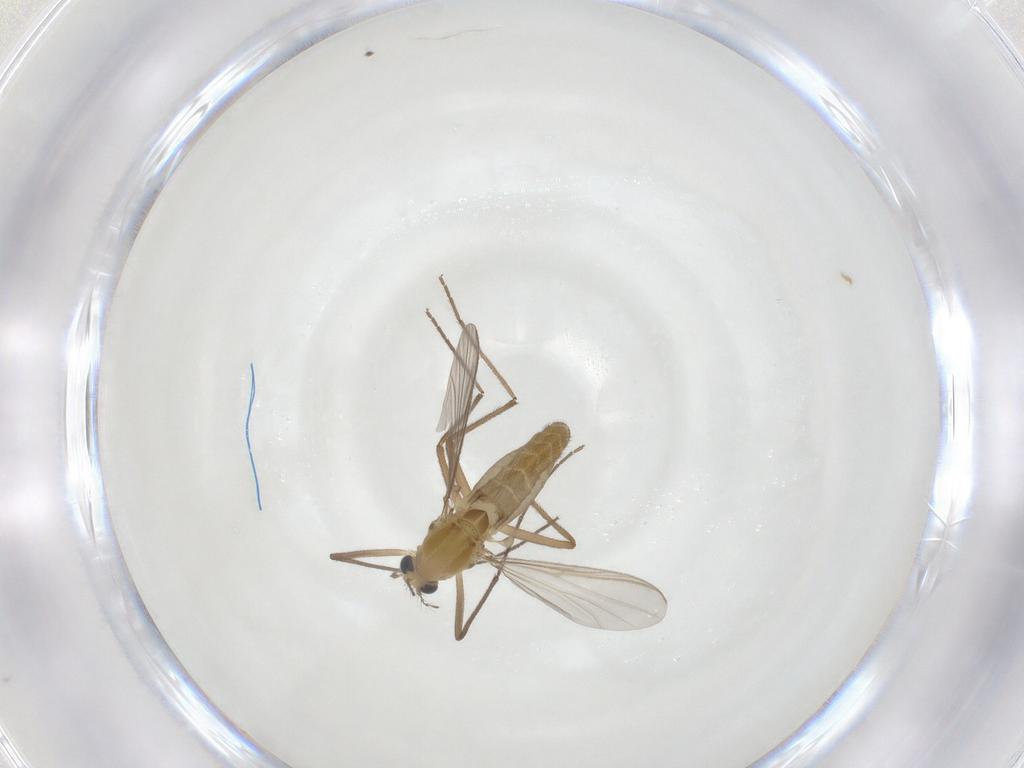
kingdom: Animalia
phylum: Arthropoda
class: Insecta
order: Diptera
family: Chironomidae
